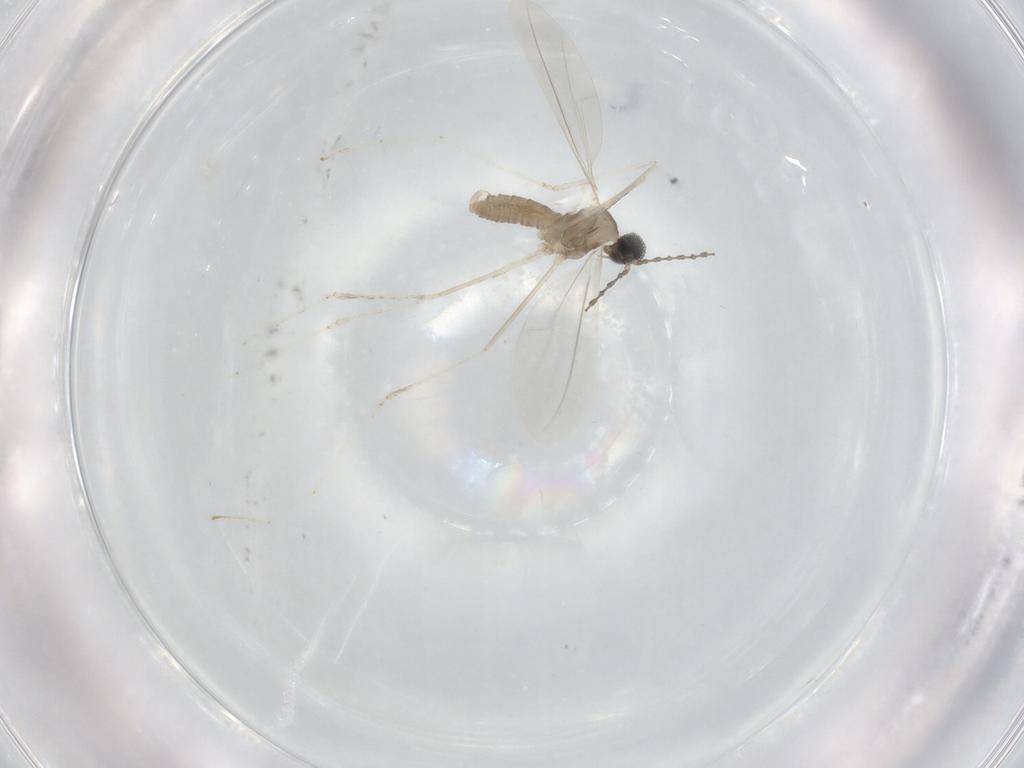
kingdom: Animalia
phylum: Arthropoda
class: Insecta
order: Diptera
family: Cecidomyiidae
